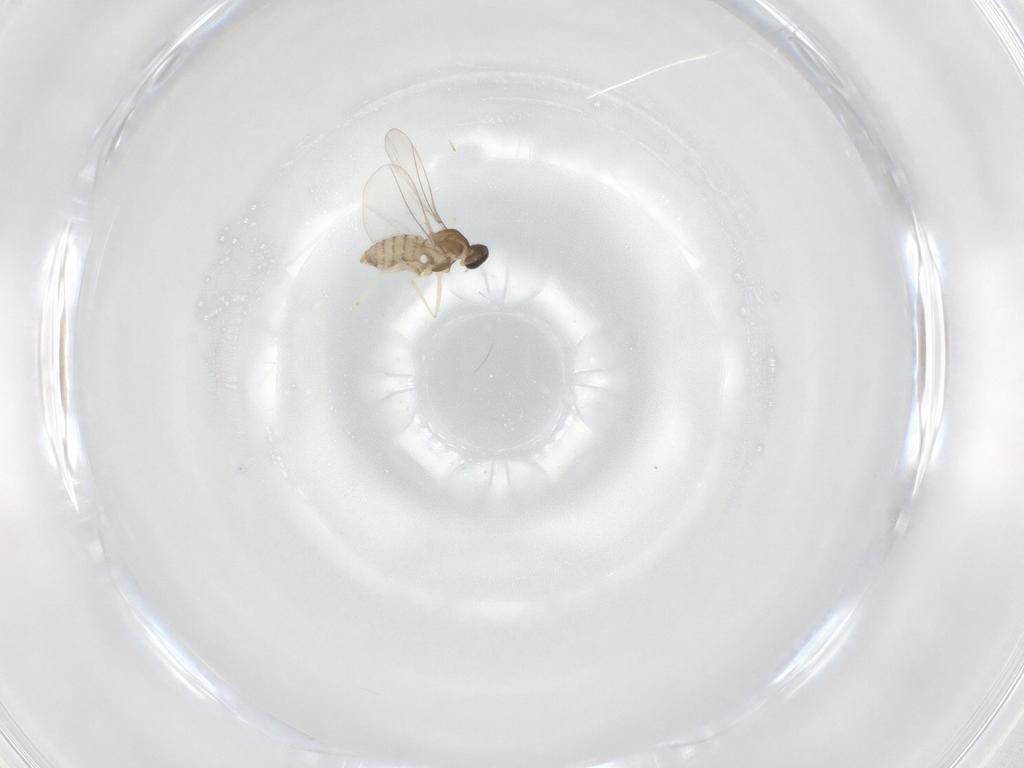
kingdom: Animalia
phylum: Arthropoda
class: Insecta
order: Diptera
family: Cecidomyiidae
